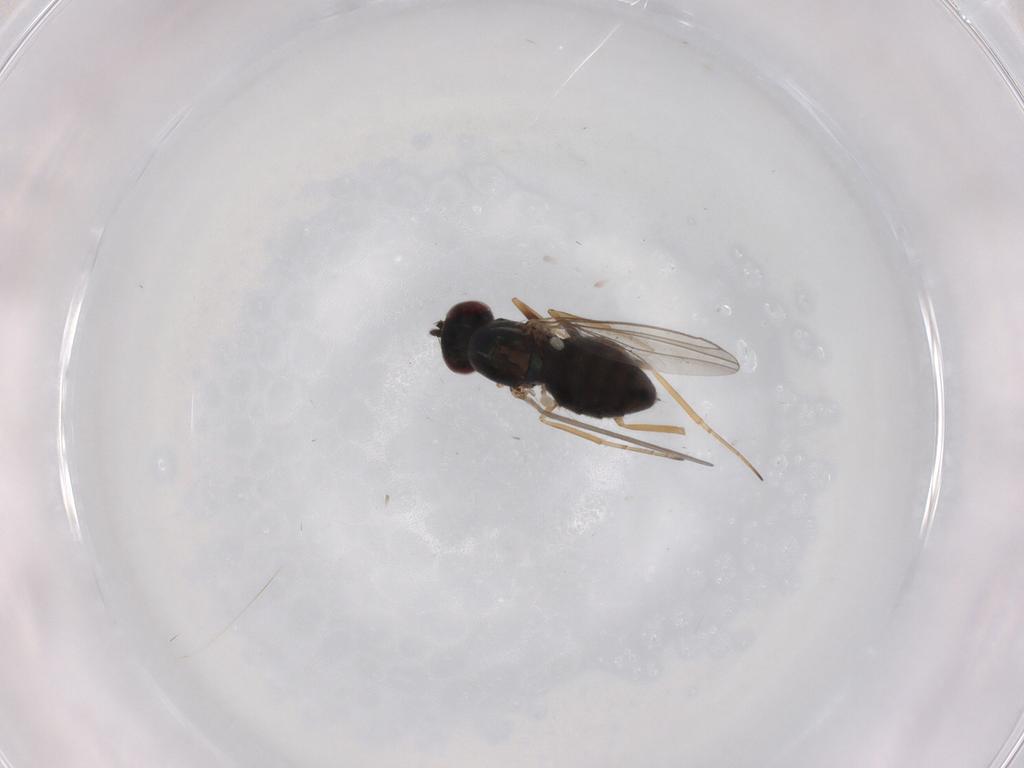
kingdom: Animalia
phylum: Arthropoda
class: Insecta
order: Diptera
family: Dolichopodidae
